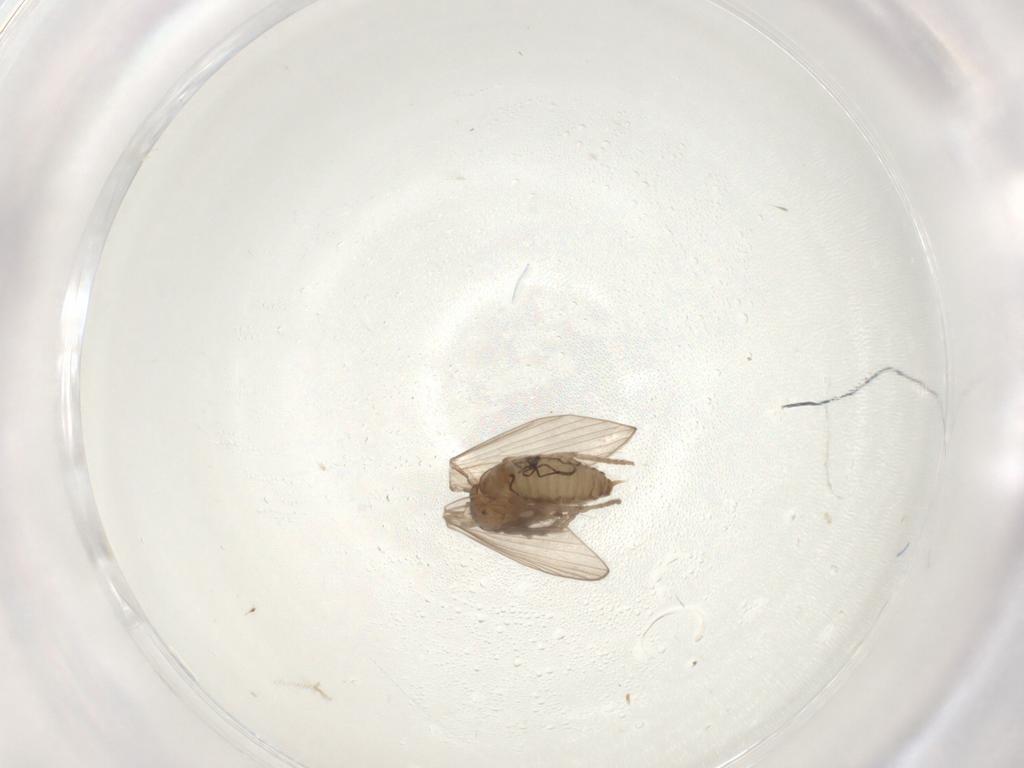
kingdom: Animalia
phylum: Arthropoda
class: Insecta
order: Diptera
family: Psychodidae
